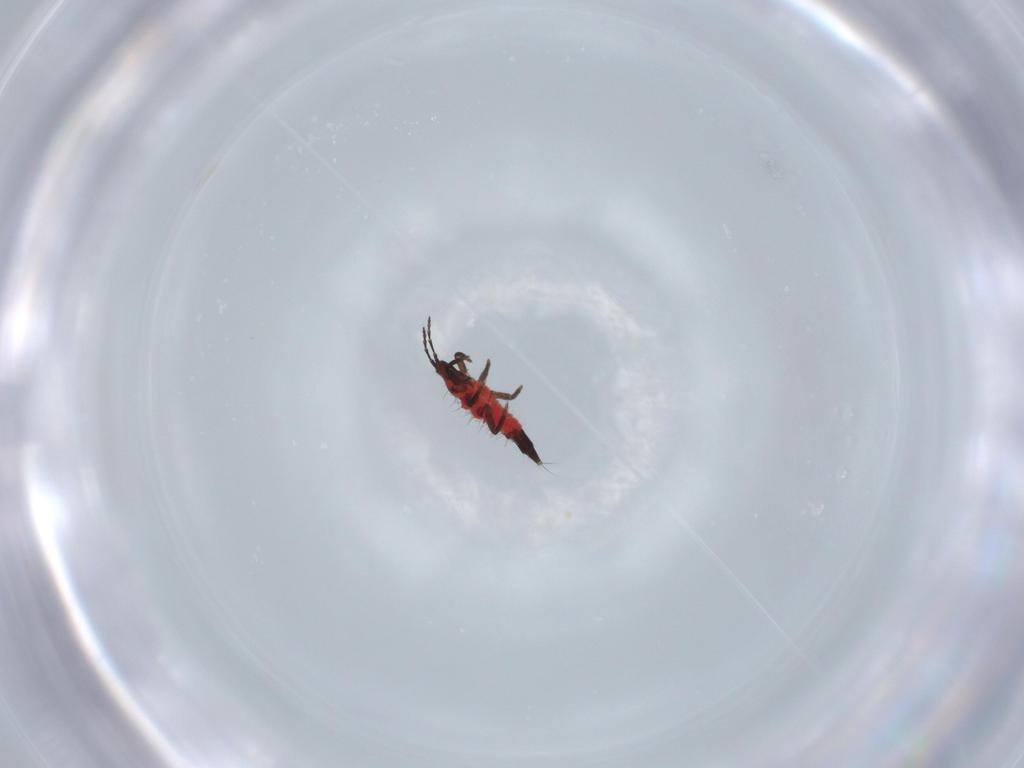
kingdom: Animalia
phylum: Arthropoda
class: Insecta
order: Thysanoptera
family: Phlaeothripidae
